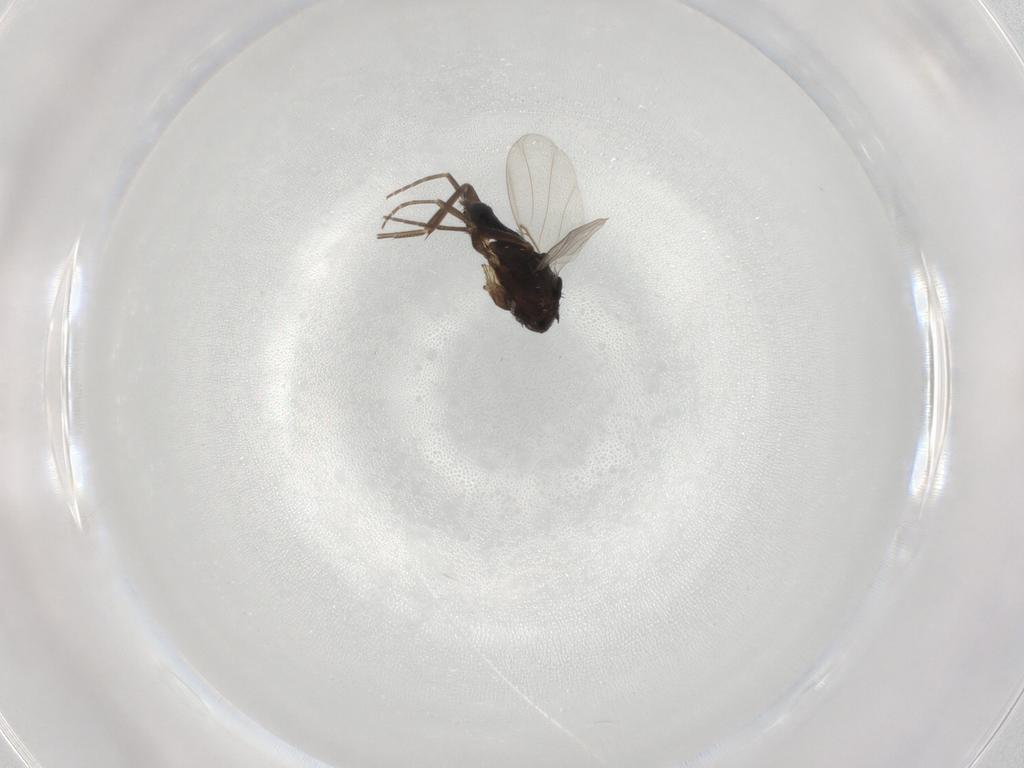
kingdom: Animalia
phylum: Arthropoda
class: Insecta
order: Diptera
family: Phoridae
